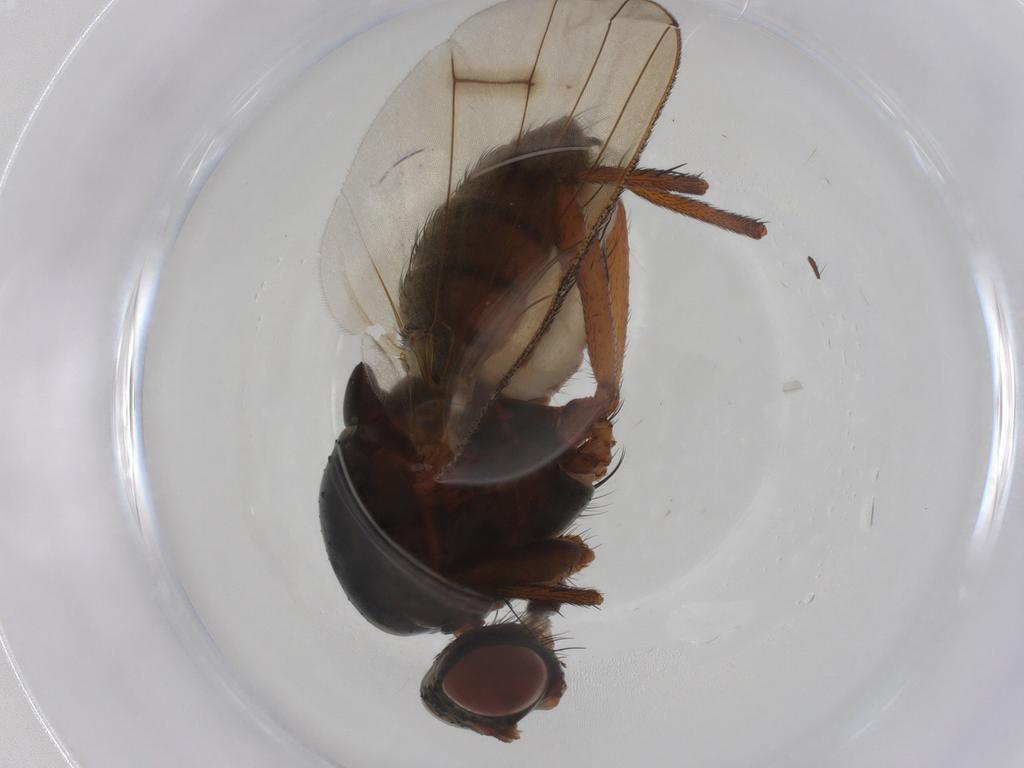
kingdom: Animalia
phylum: Arthropoda
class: Insecta
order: Diptera
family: Anthomyiidae
